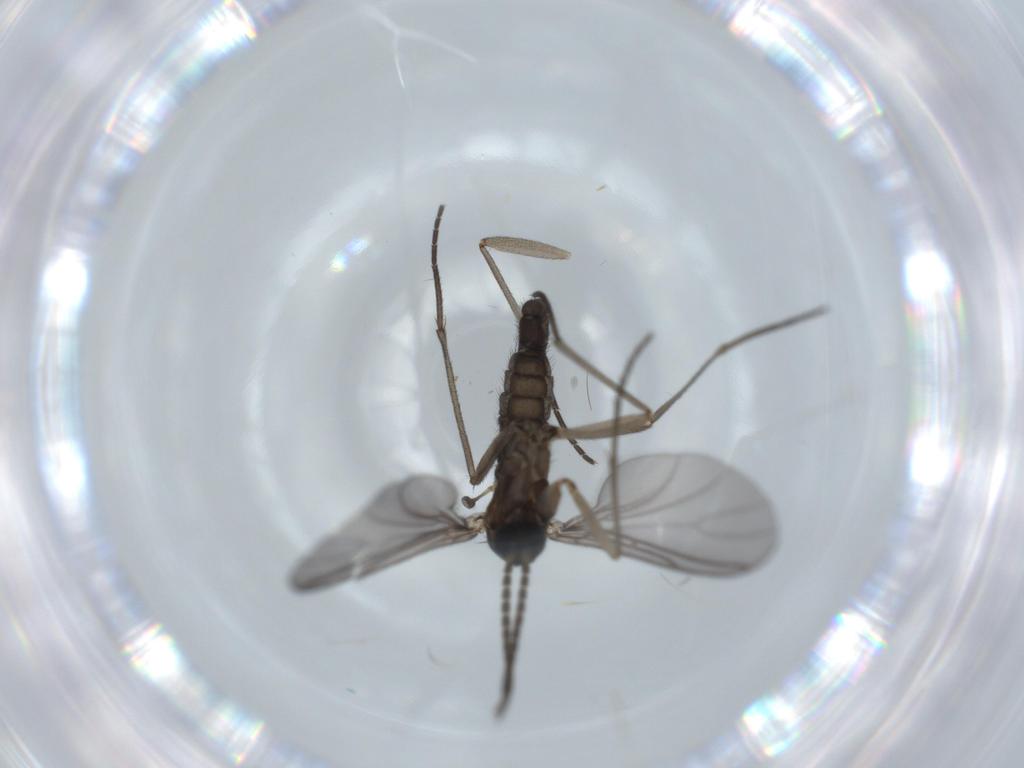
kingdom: Animalia
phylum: Arthropoda
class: Insecta
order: Diptera
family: Sciaridae
